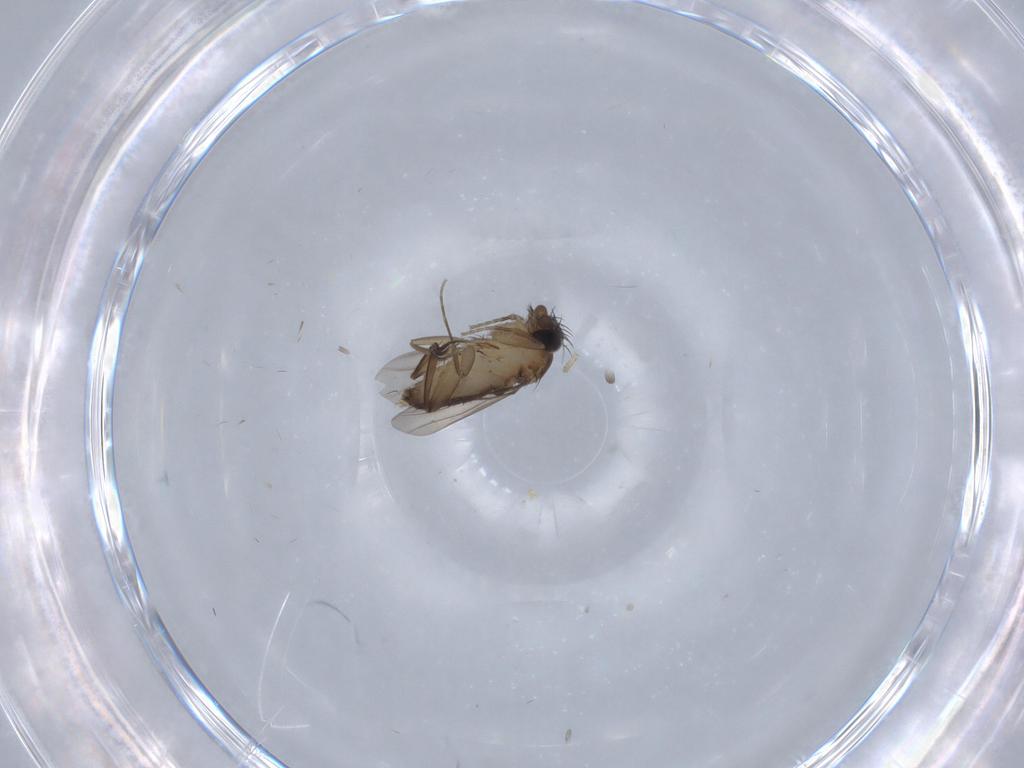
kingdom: Animalia
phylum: Arthropoda
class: Insecta
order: Diptera
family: Phoridae
